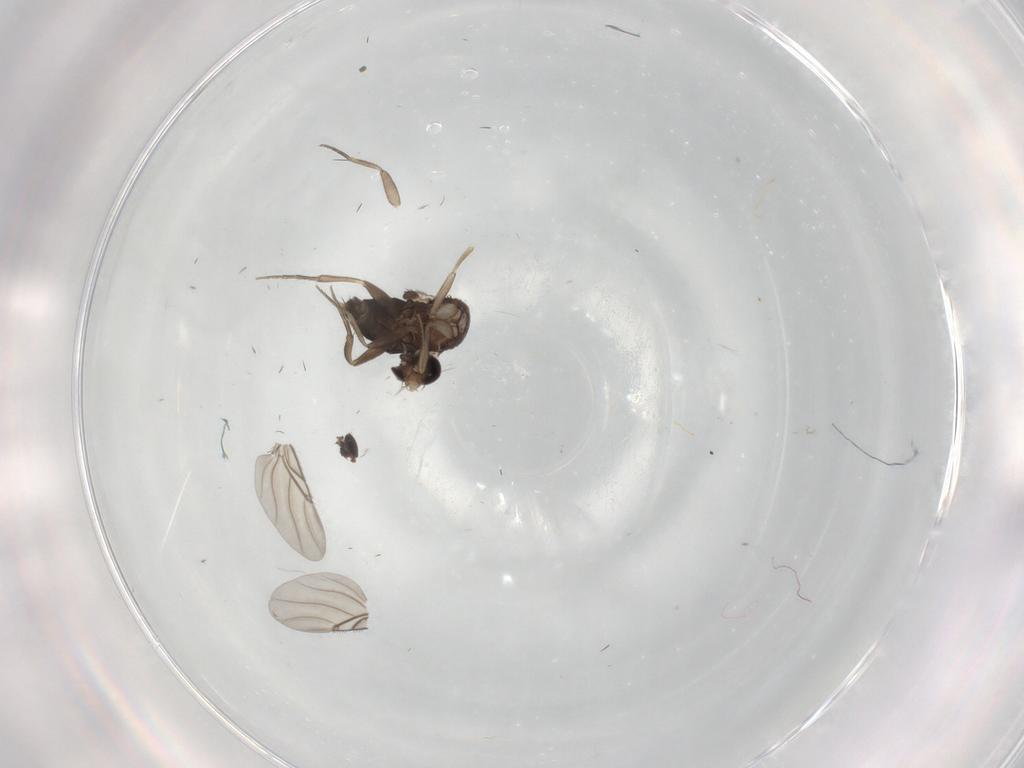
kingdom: Animalia
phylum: Arthropoda
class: Insecta
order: Diptera
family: Phoridae
